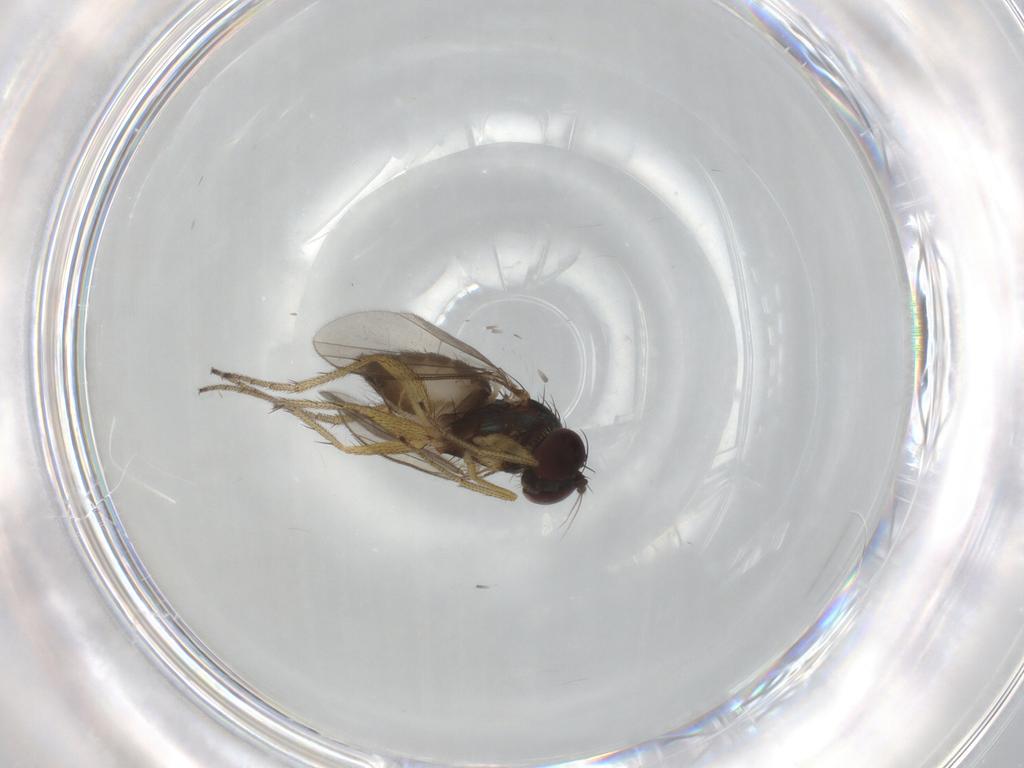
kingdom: Animalia
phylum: Arthropoda
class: Insecta
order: Diptera
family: Chironomidae
